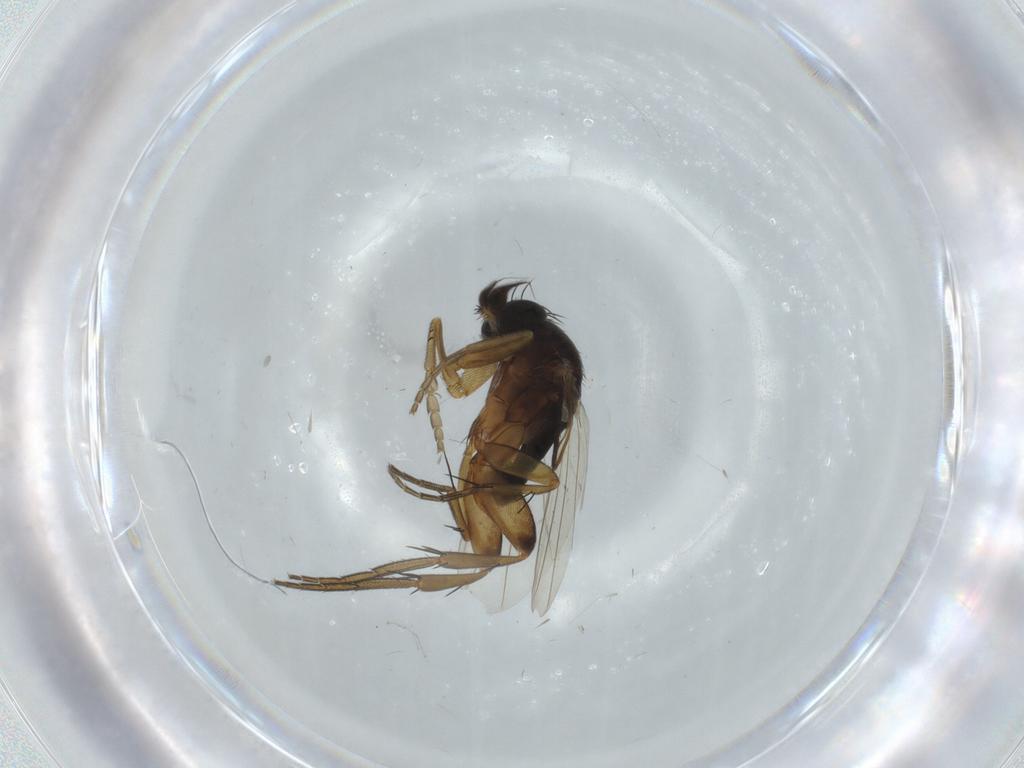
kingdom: Animalia
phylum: Arthropoda
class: Insecta
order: Diptera
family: Phoridae
